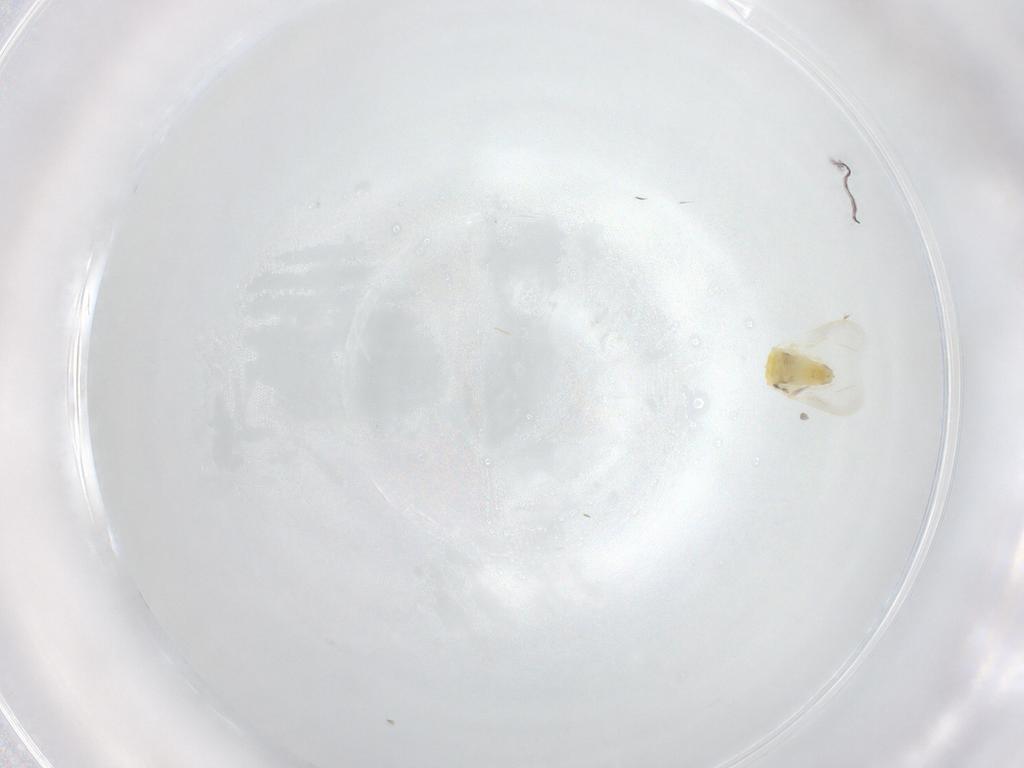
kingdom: Animalia
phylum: Arthropoda
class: Insecta
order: Hemiptera
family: Aleyrodidae
